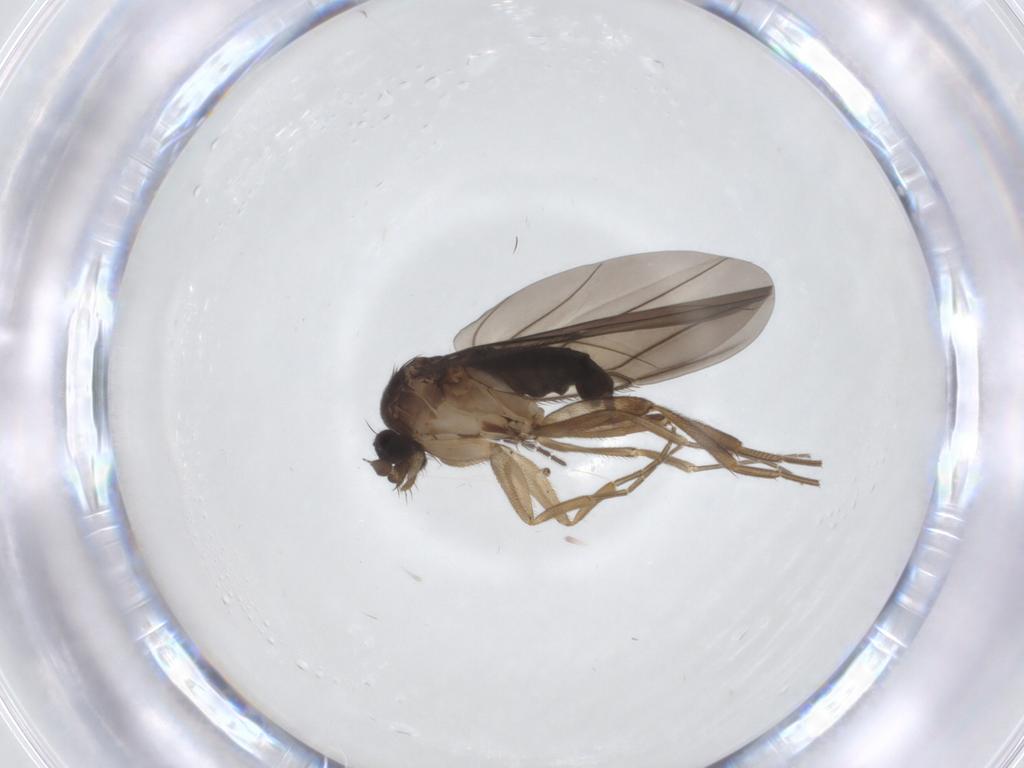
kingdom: Animalia
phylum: Arthropoda
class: Insecta
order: Diptera
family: Phoridae
